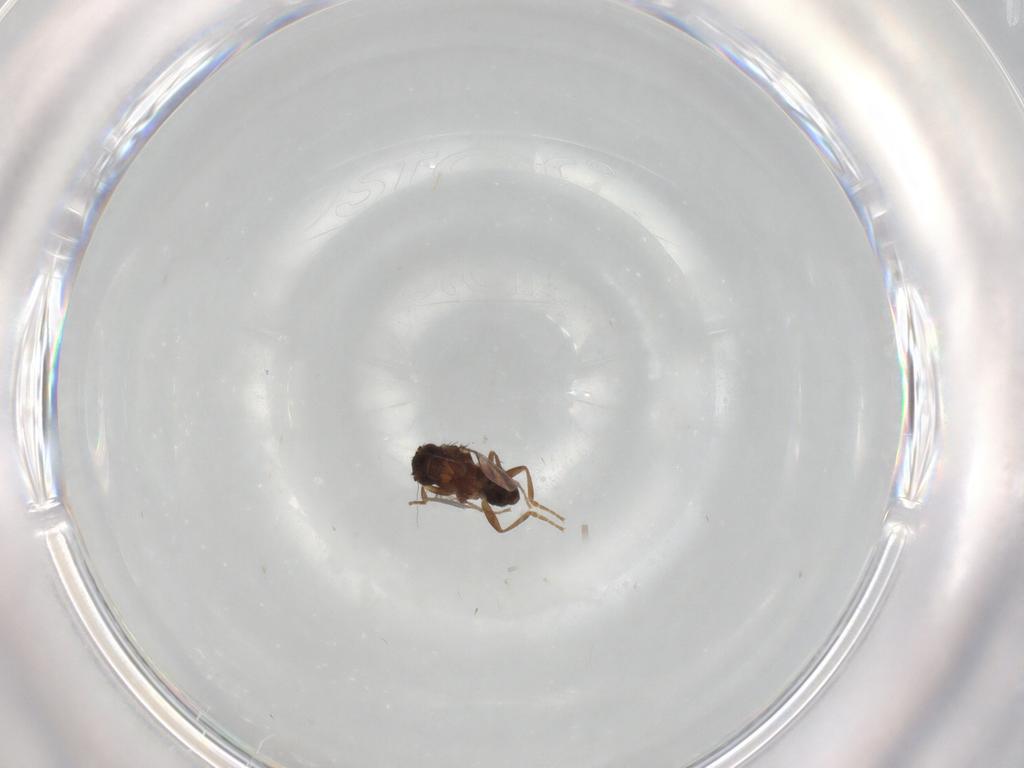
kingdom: Animalia
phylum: Arthropoda
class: Insecta
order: Diptera
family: Sphaeroceridae
